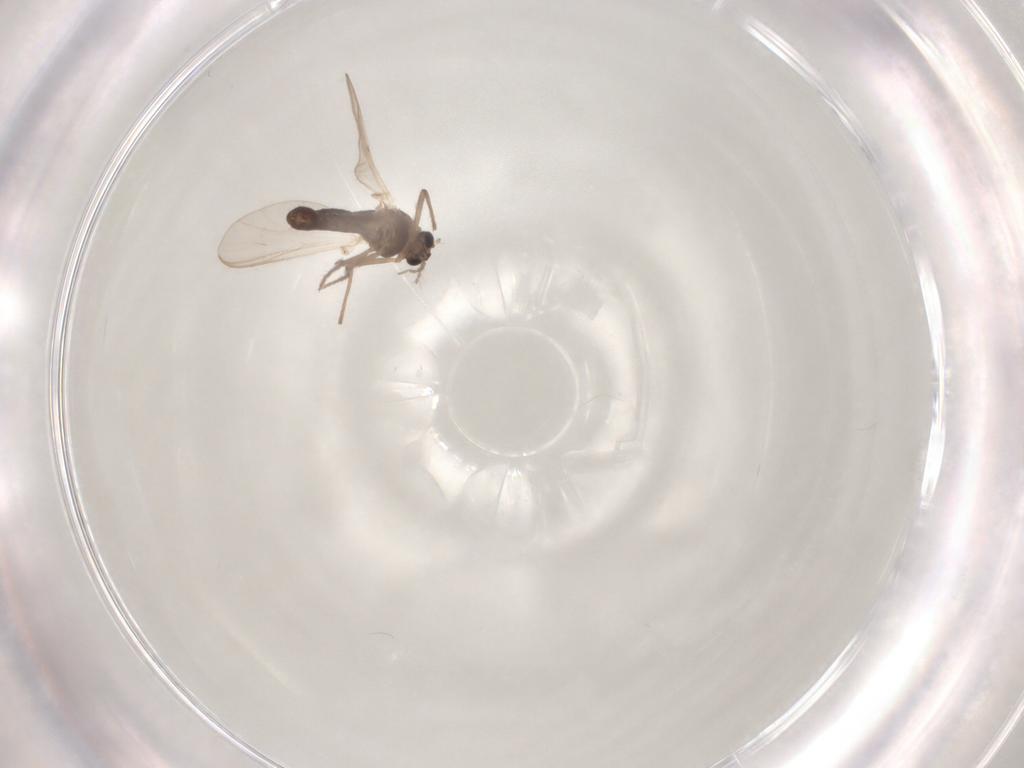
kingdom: Animalia
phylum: Arthropoda
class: Insecta
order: Diptera
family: Chironomidae
